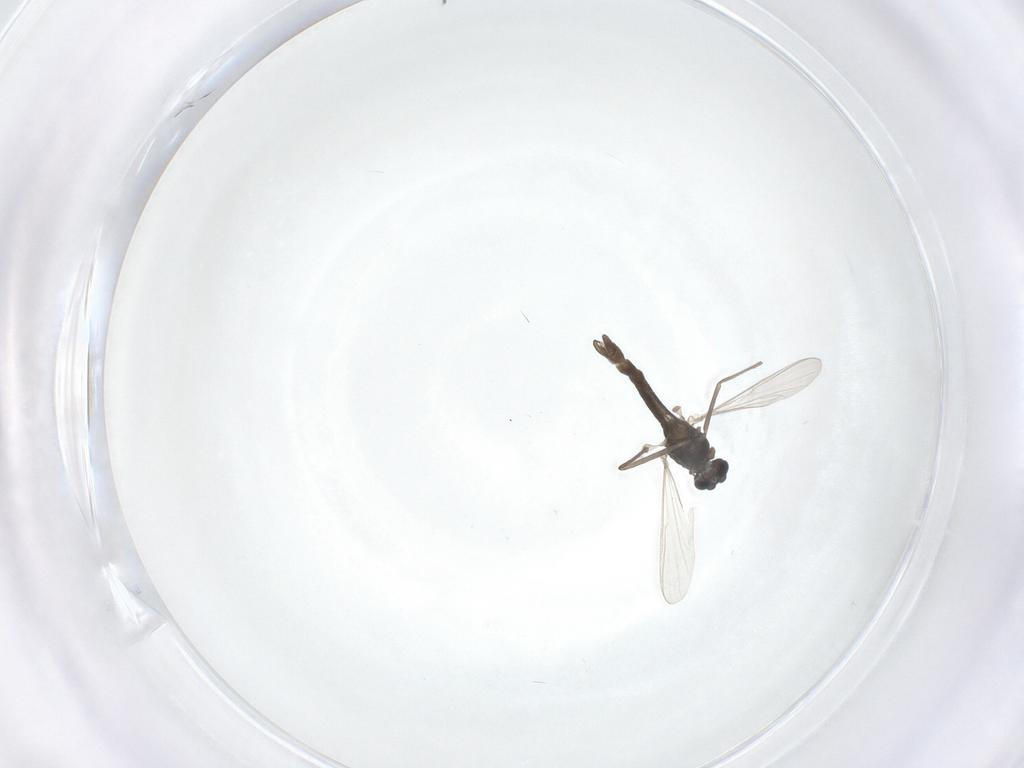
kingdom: Animalia
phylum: Arthropoda
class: Insecta
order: Diptera
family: Chironomidae
